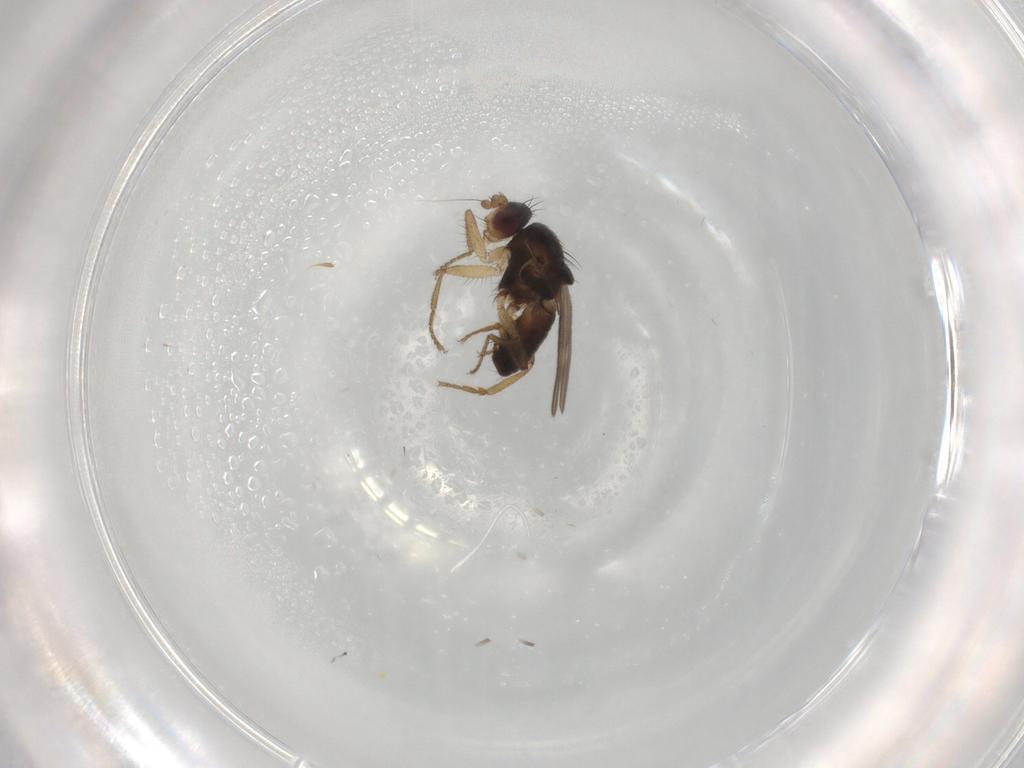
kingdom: Animalia
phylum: Arthropoda
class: Insecta
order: Diptera
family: Sphaeroceridae
